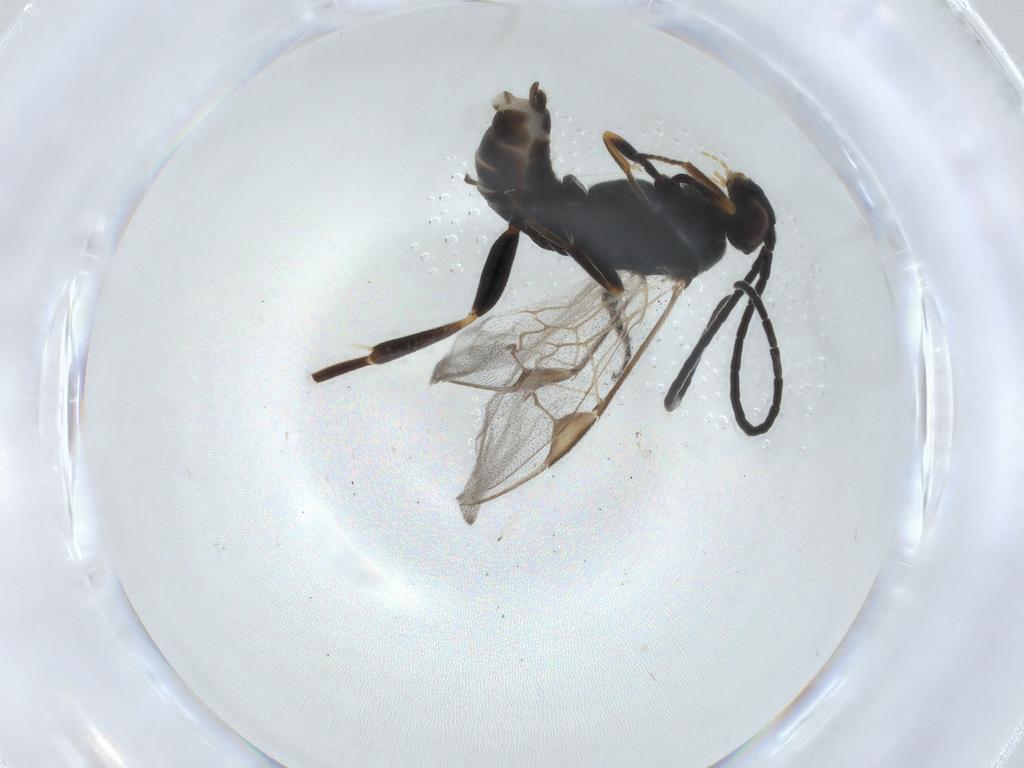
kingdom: Animalia
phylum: Arthropoda
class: Insecta
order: Hymenoptera
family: Braconidae
